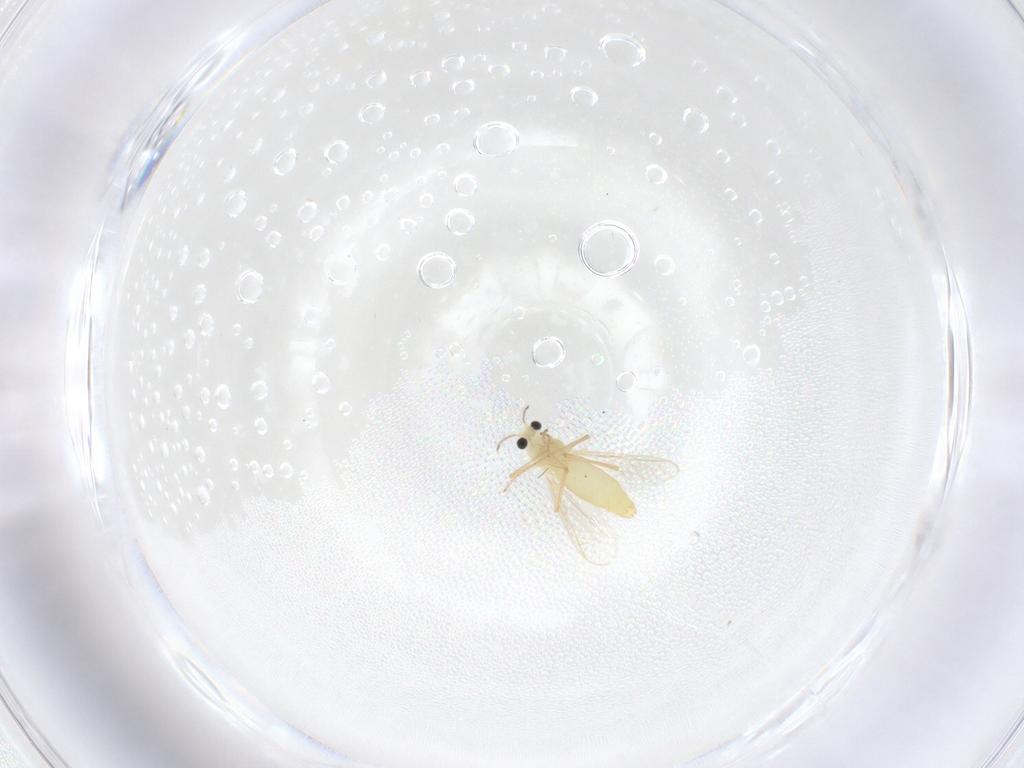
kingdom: Animalia
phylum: Arthropoda
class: Insecta
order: Diptera
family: Chironomidae
